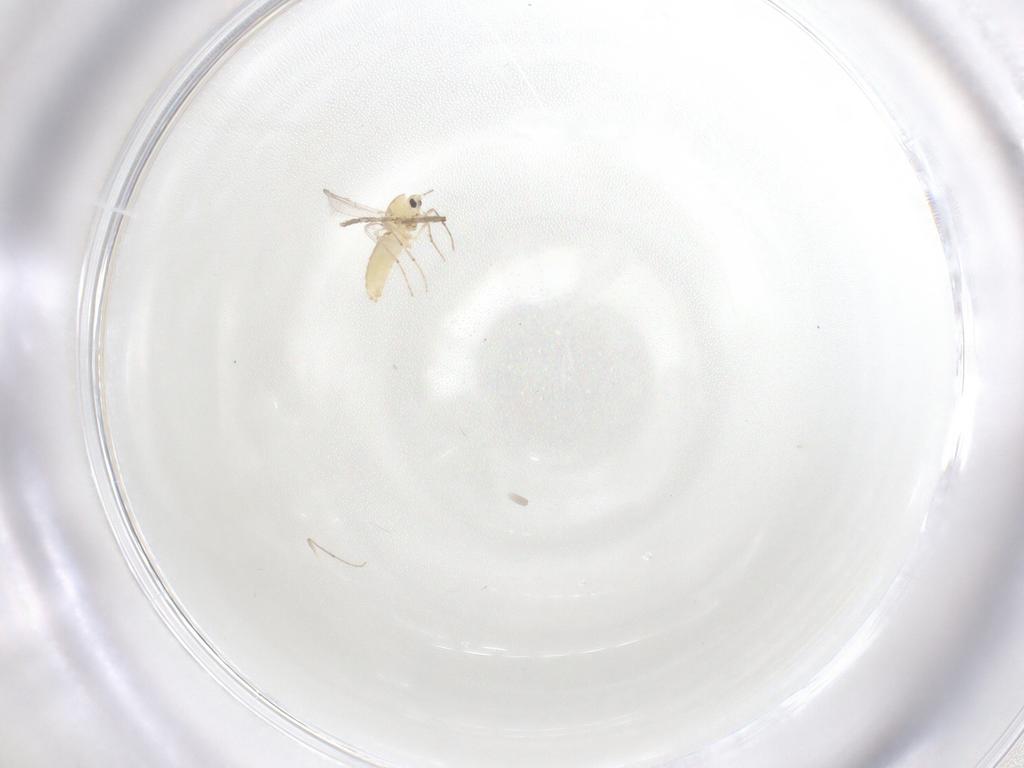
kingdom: Animalia
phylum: Arthropoda
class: Insecta
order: Diptera
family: Chironomidae
